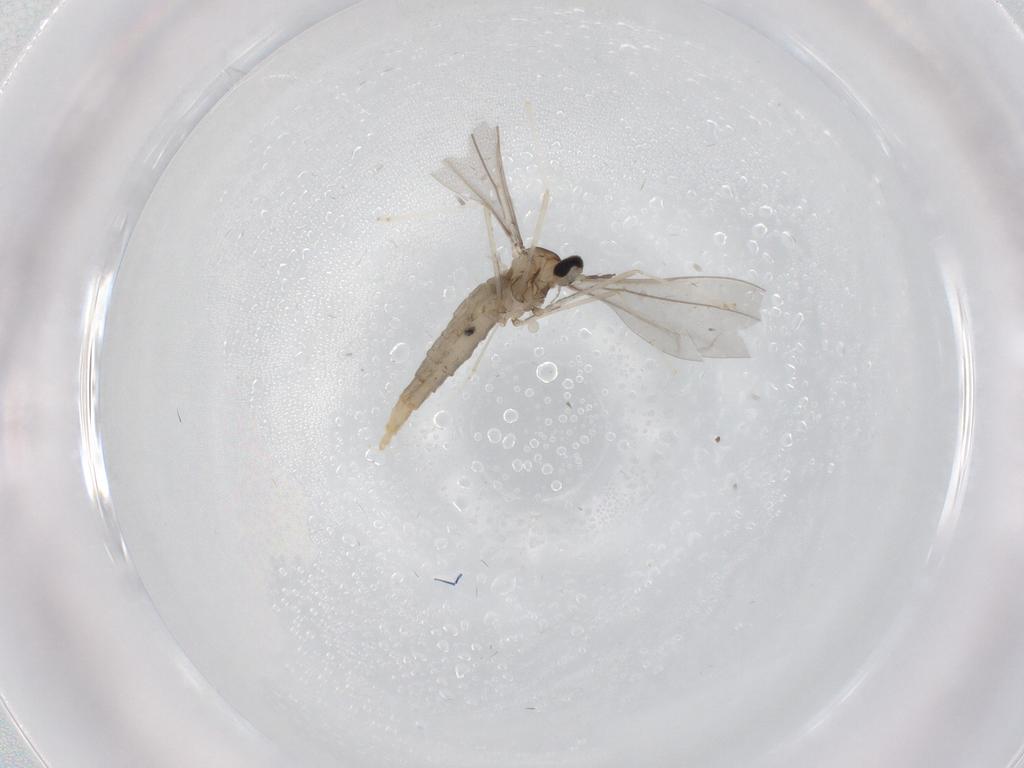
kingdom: Animalia
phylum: Arthropoda
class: Insecta
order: Diptera
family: Cecidomyiidae
